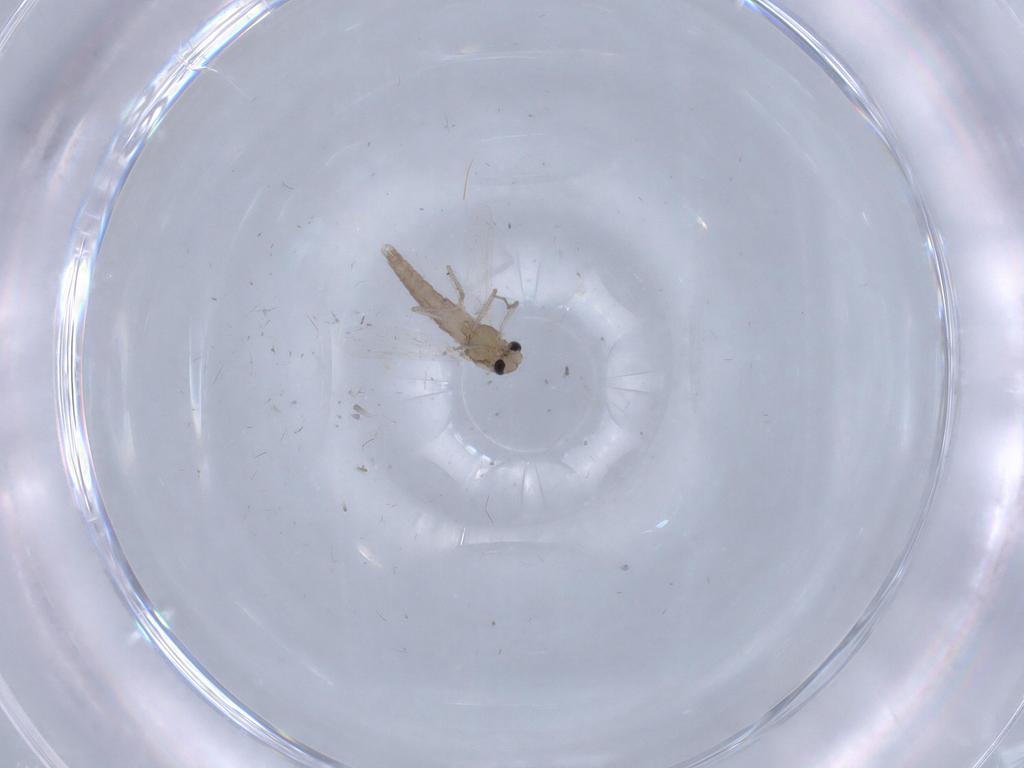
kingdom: Animalia
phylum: Arthropoda
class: Insecta
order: Diptera
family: Chironomidae
